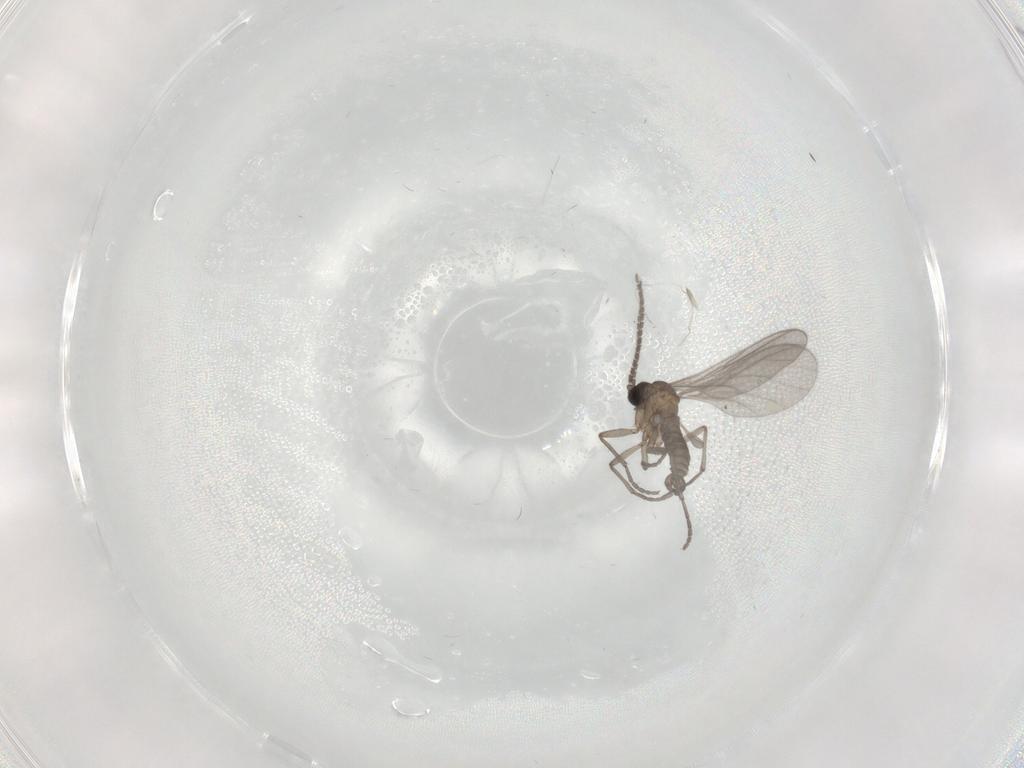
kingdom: Animalia
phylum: Arthropoda
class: Insecta
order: Diptera
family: Sciaridae
